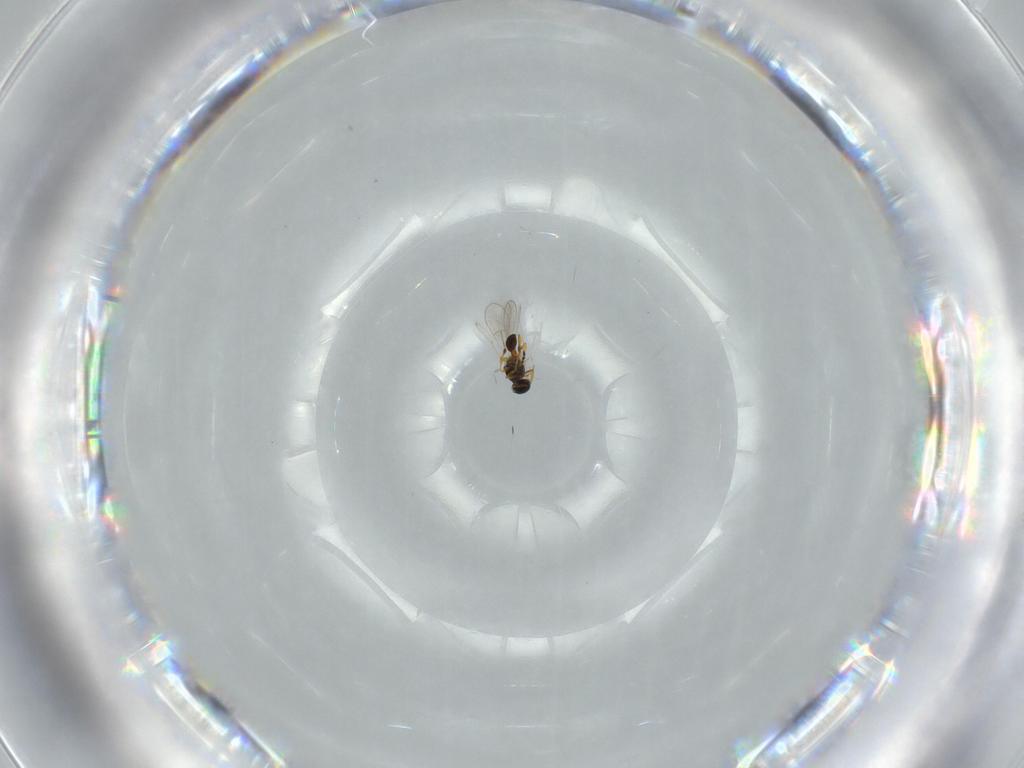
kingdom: Animalia
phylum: Arthropoda
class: Insecta
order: Hymenoptera
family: Platygastridae
